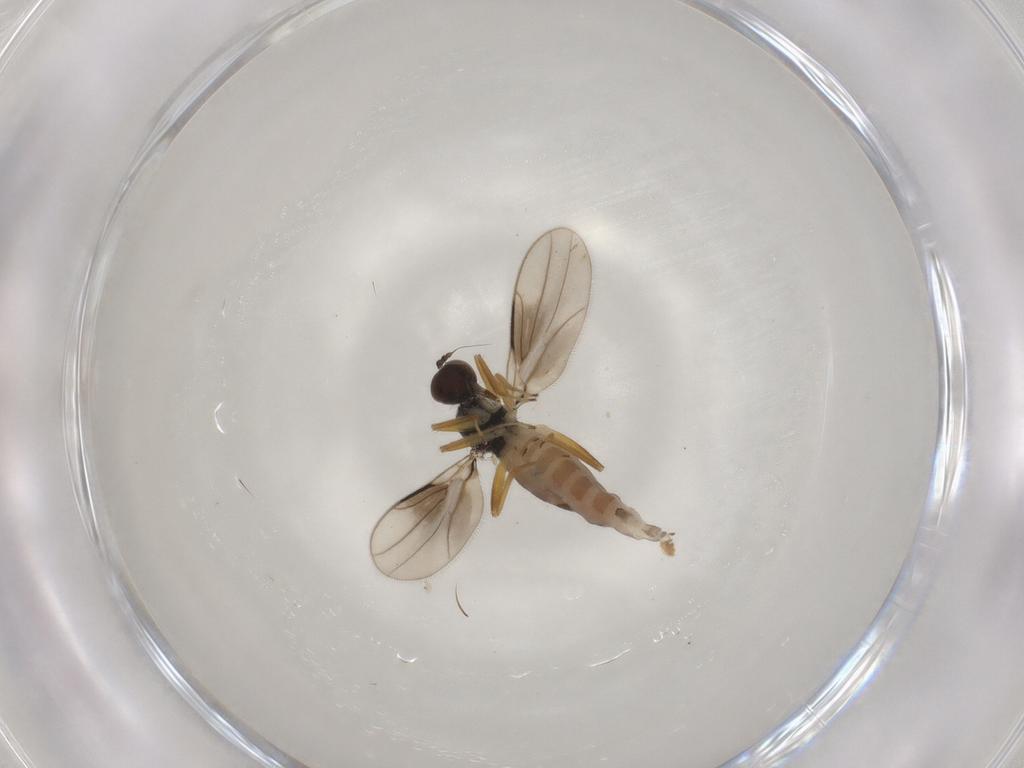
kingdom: Animalia
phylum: Arthropoda
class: Insecta
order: Diptera
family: Hybotidae
